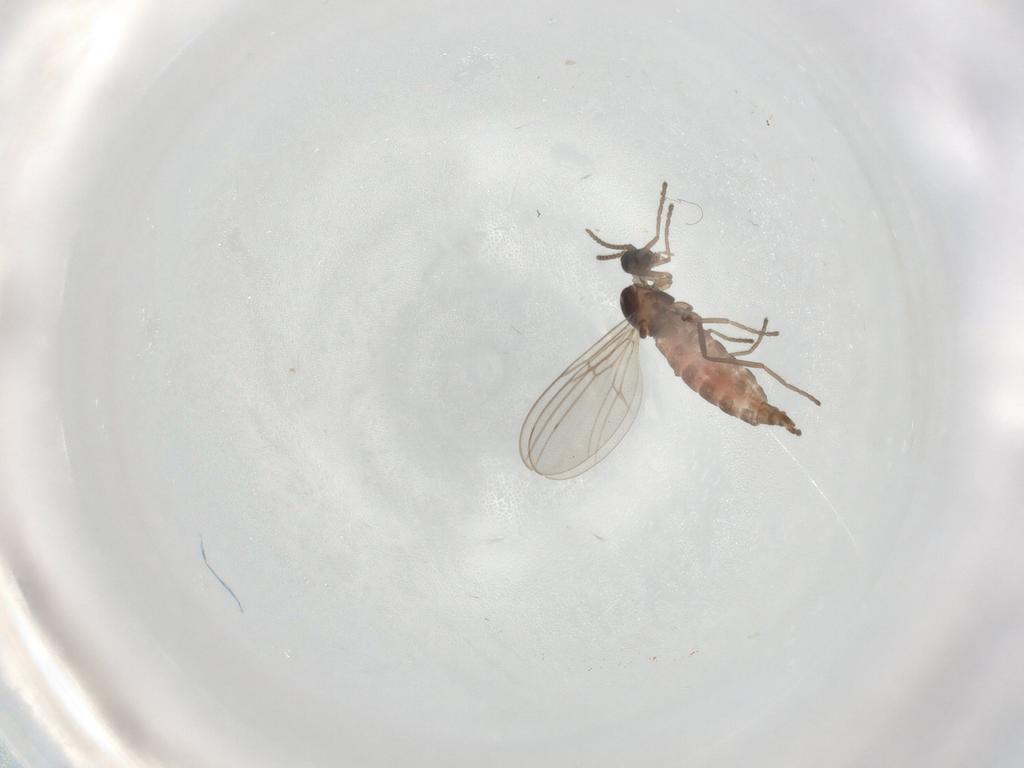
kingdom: Animalia
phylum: Arthropoda
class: Insecta
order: Diptera
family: Cecidomyiidae
